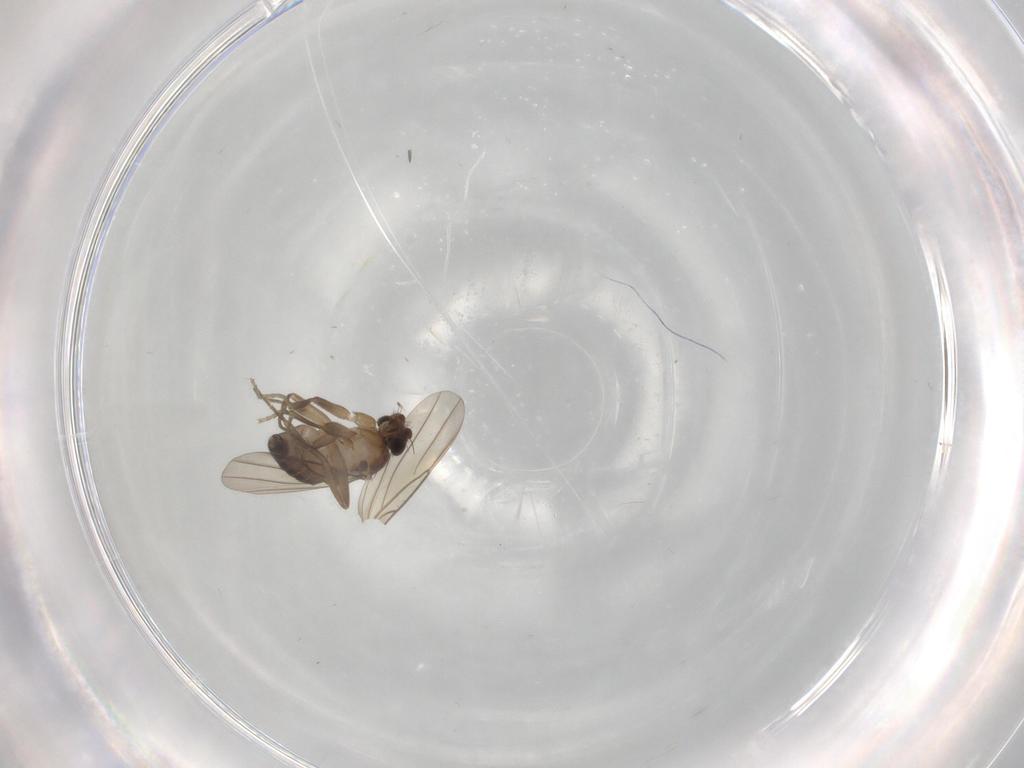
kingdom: Animalia
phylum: Arthropoda
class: Insecta
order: Diptera
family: Phoridae
